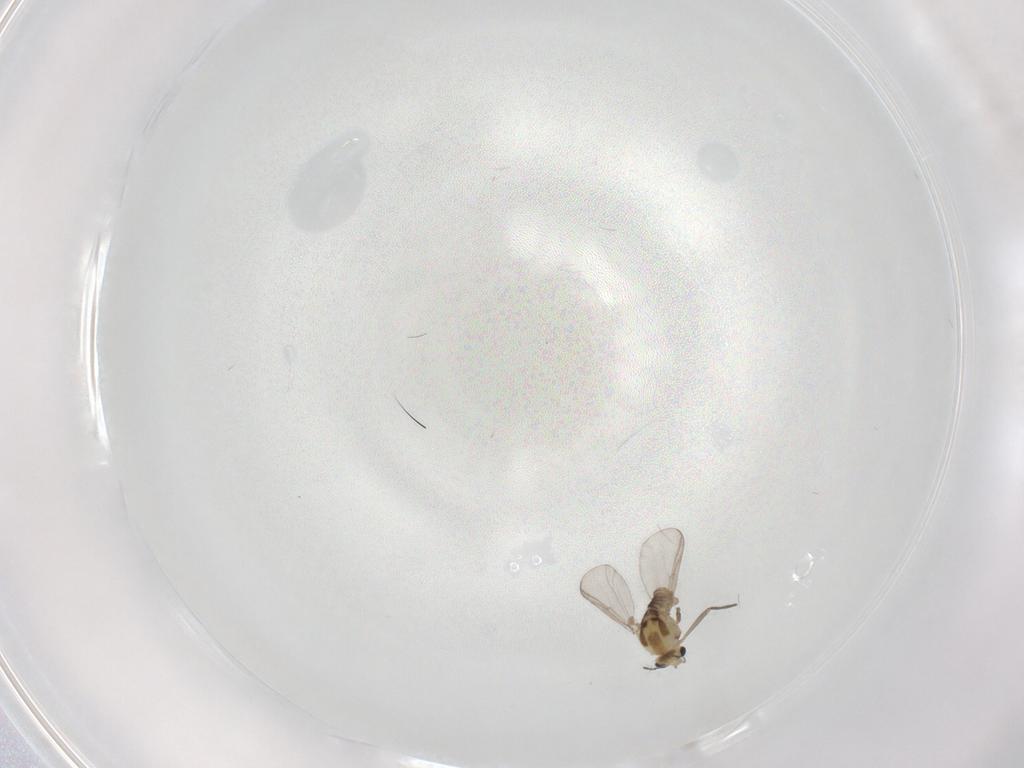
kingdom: Animalia
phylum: Arthropoda
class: Insecta
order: Diptera
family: Chironomidae
